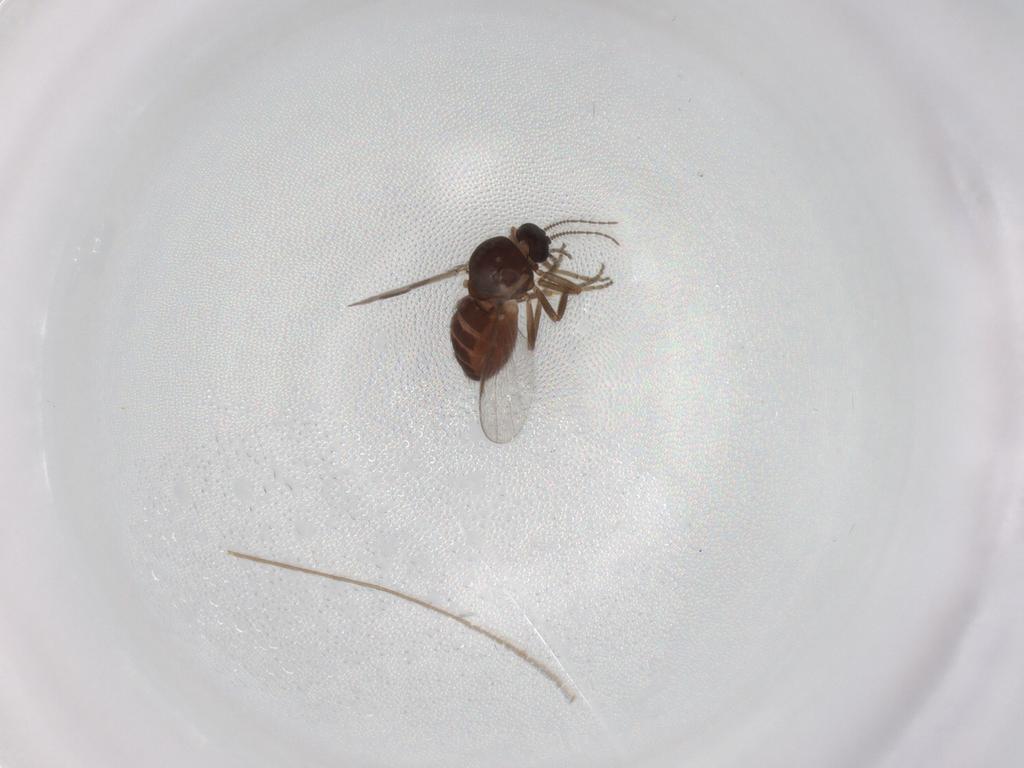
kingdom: Animalia
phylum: Arthropoda
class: Insecta
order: Diptera
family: Ceratopogonidae
